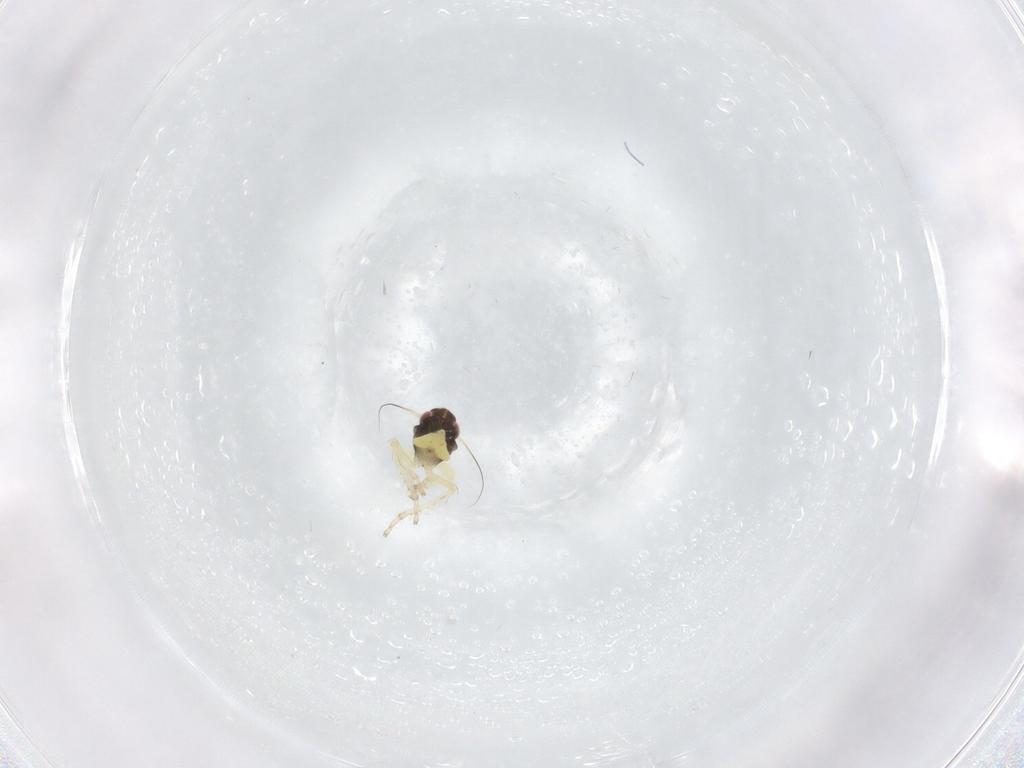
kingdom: Animalia
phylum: Arthropoda
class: Insecta
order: Hemiptera
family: Cicadellidae
